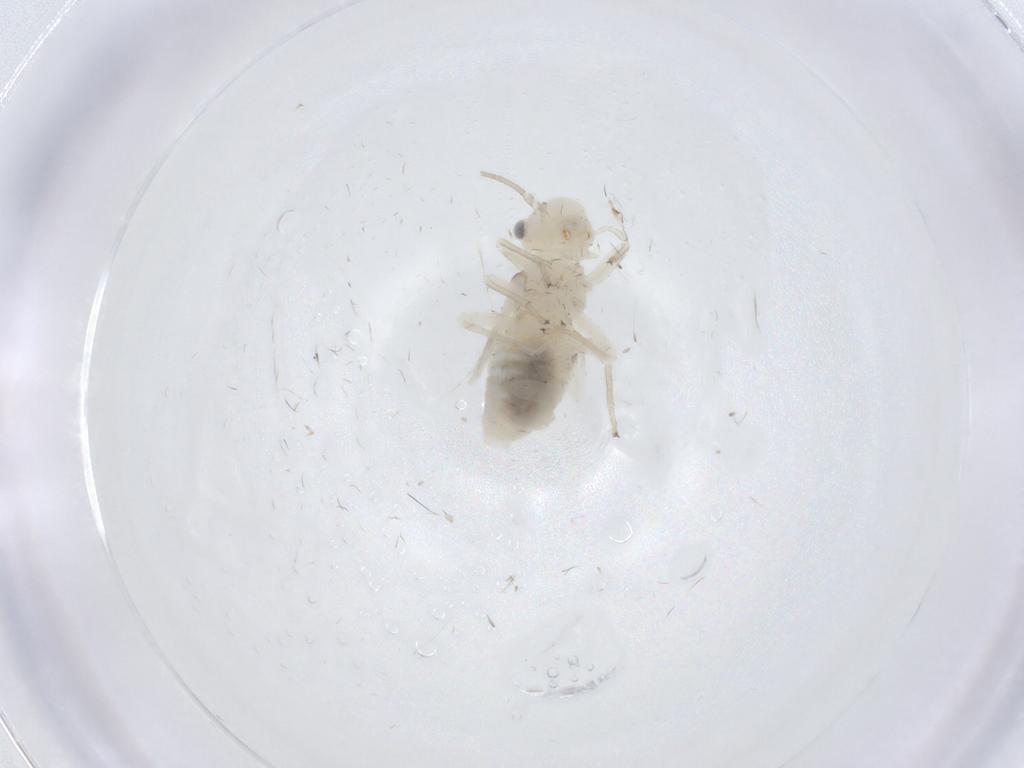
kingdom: Animalia
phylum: Arthropoda
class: Insecta
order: Psocodea
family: Caeciliusidae
